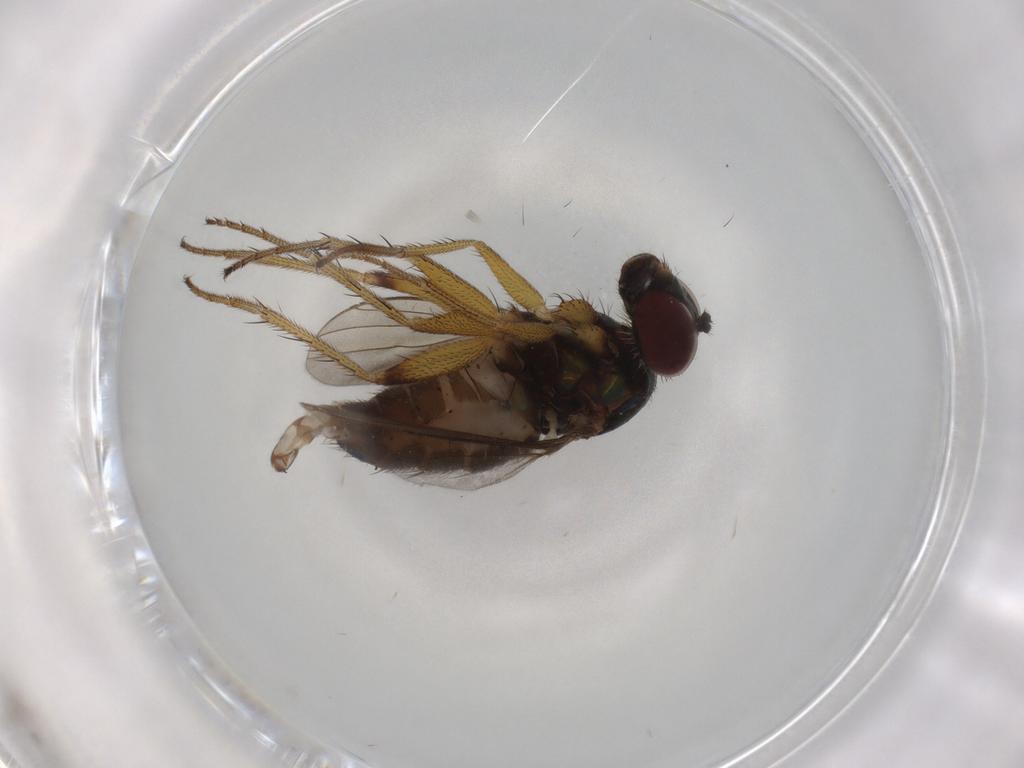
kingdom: Animalia
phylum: Arthropoda
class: Insecta
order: Diptera
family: Dolichopodidae
